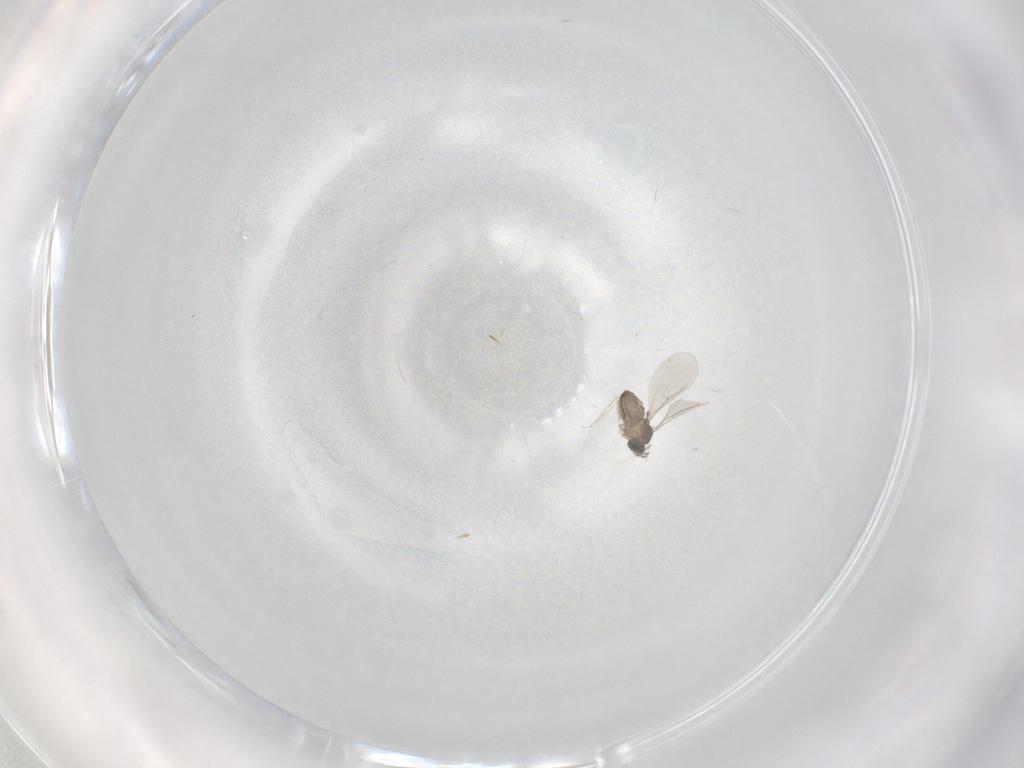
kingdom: Animalia
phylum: Arthropoda
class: Insecta
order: Diptera
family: Cecidomyiidae
